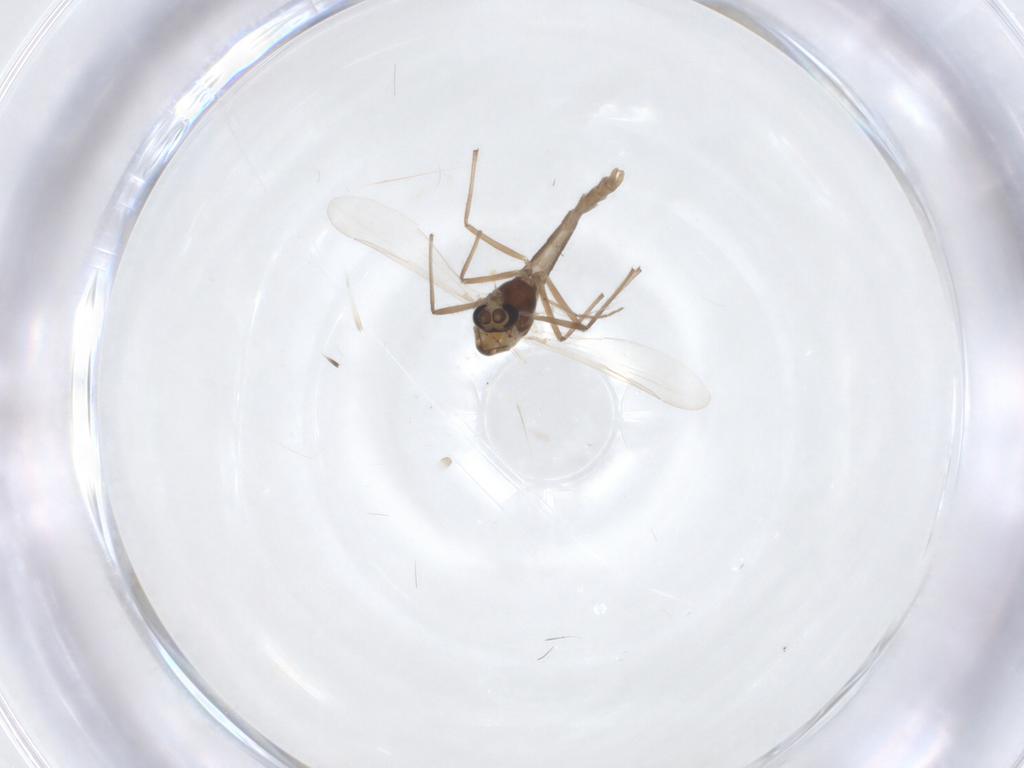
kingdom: Animalia
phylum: Arthropoda
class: Insecta
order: Diptera
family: Chironomidae
